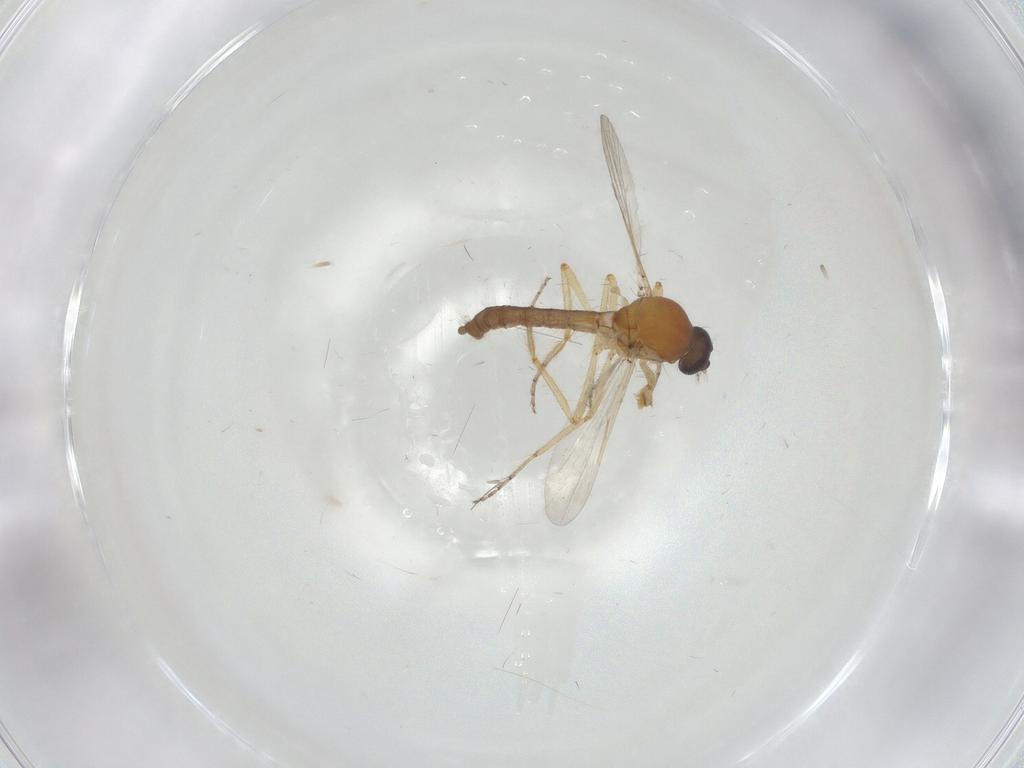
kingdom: Animalia
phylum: Arthropoda
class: Insecta
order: Diptera
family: Ceratopogonidae
